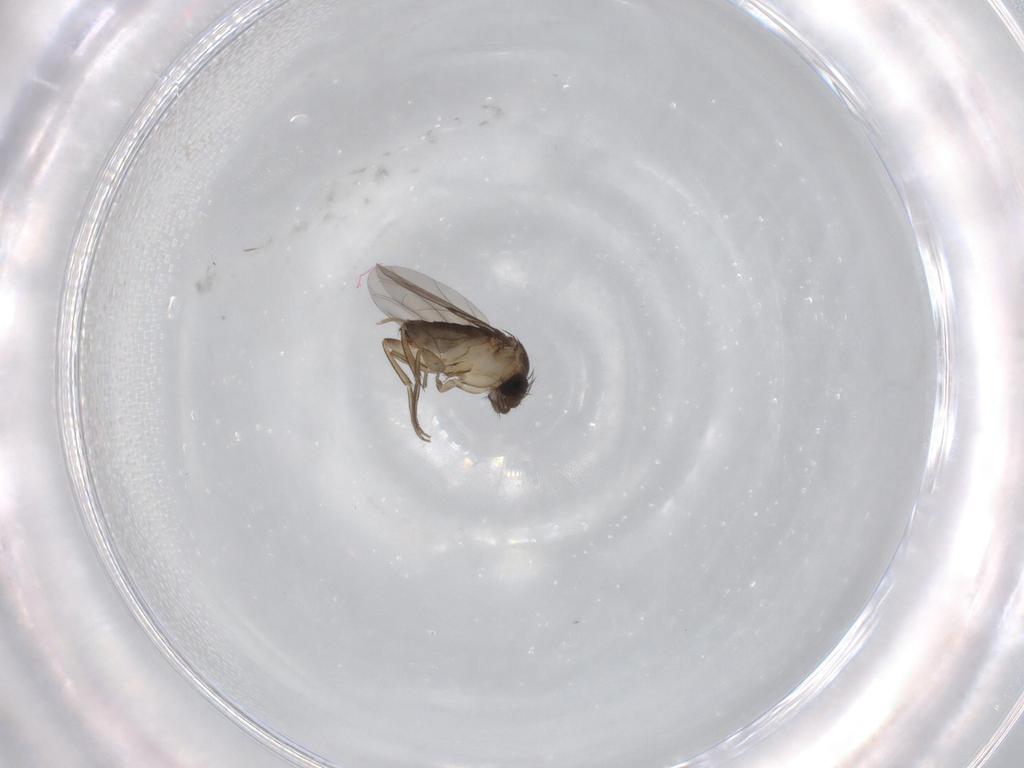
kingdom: Animalia
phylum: Arthropoda
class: Insecta
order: Diptera
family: Phoridae
